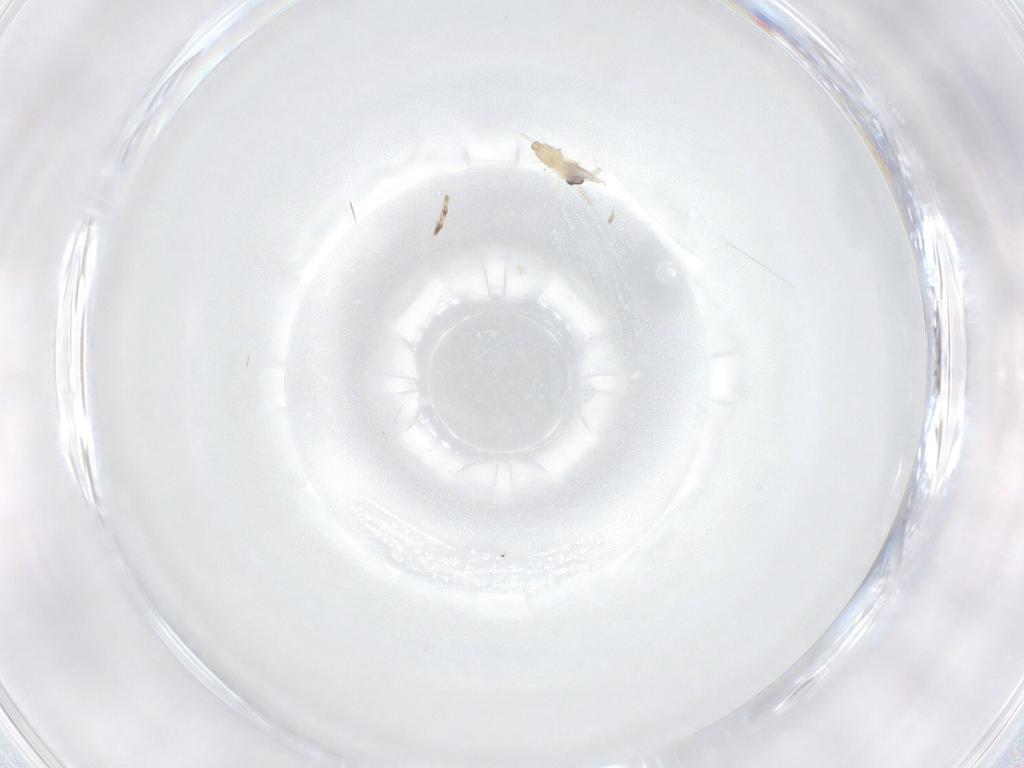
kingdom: Animalia
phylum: Arthropoda
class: Insecta
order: Diptera
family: Cecidomyiidae
